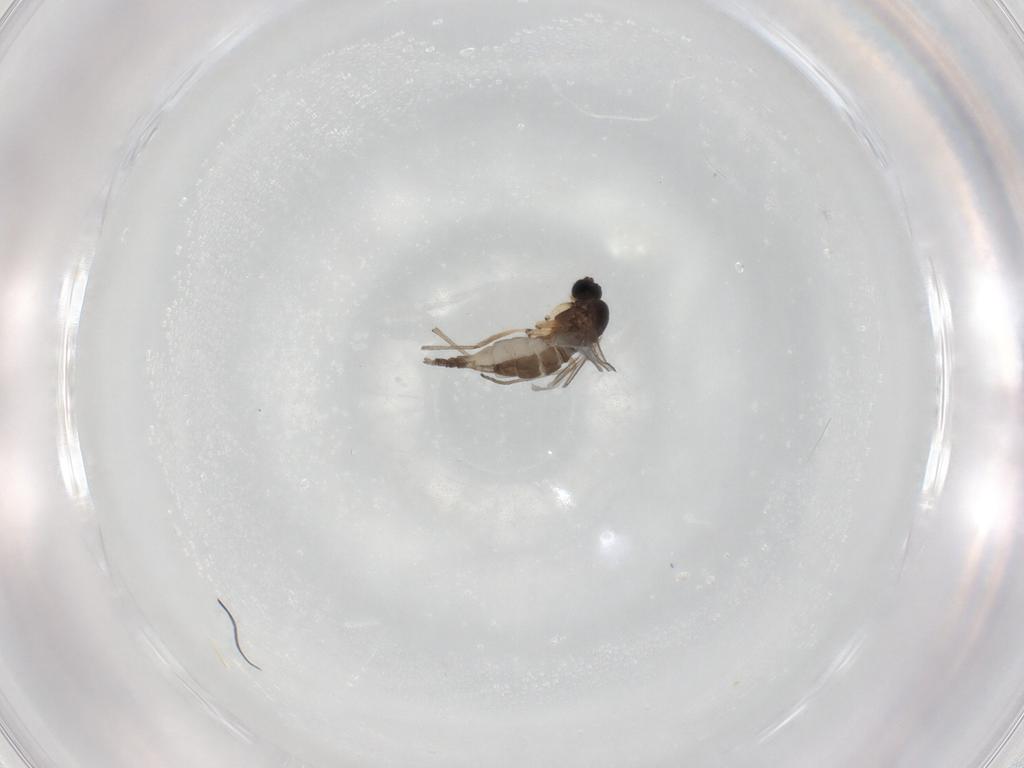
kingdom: Animalia
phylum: Arthropoda
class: Insecta
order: Diptera
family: Sciaridae
